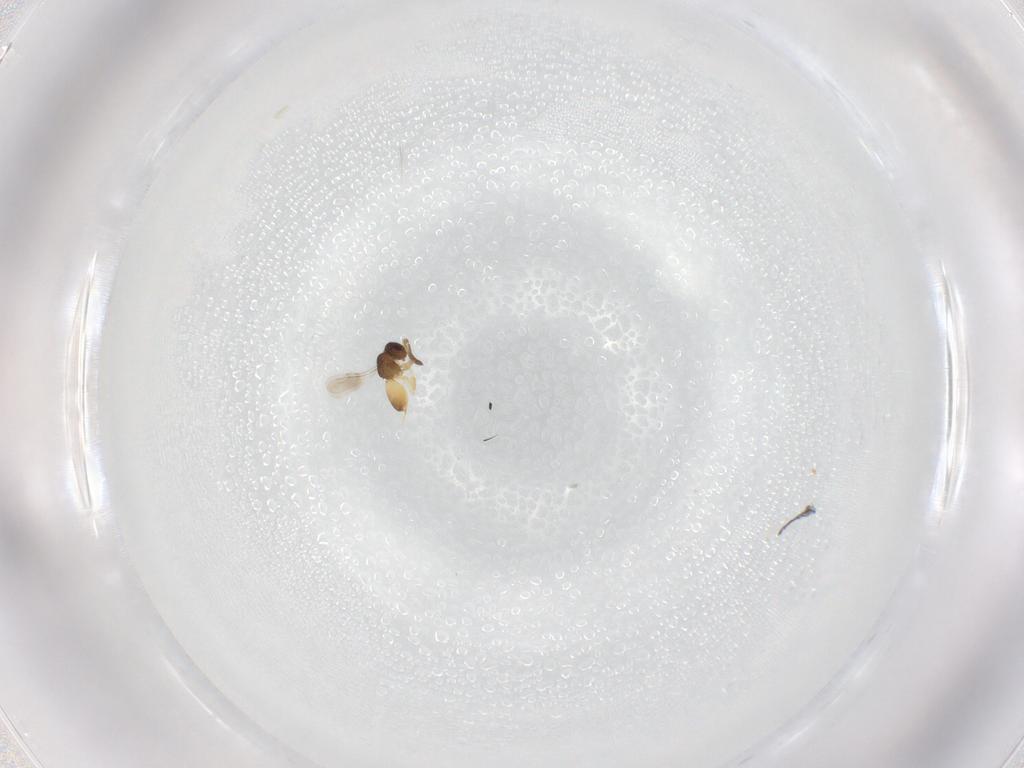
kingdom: Animalia
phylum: Arthropoda
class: Insecta
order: Hymenoptera
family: Trichogrammatidae
